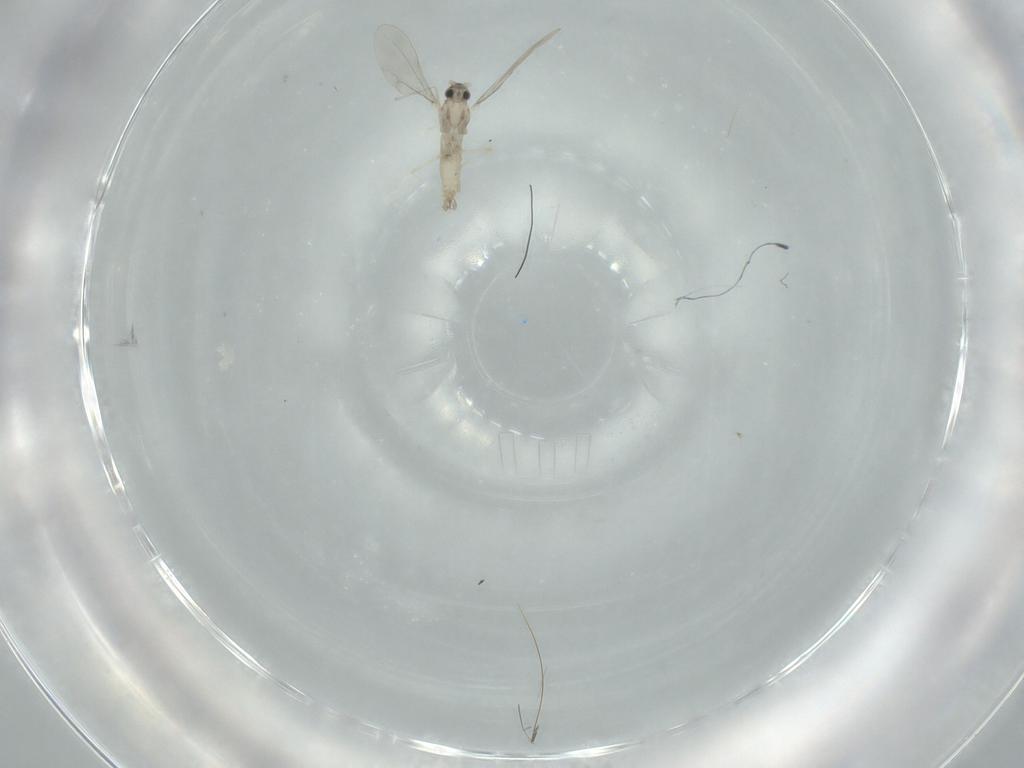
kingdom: Animalia
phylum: Arthropoda
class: Insecta
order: Diptera
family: Cecidomyiidae
